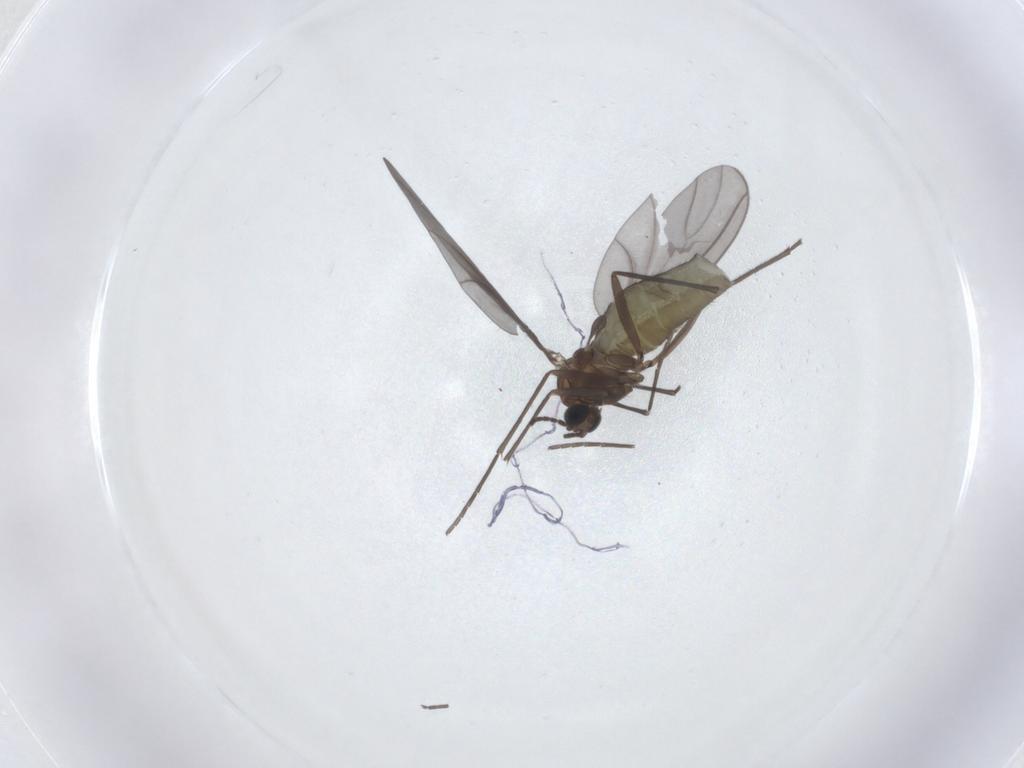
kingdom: Animalia
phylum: Arthropoda
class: Insecta
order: Diptera
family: Sciaridae
